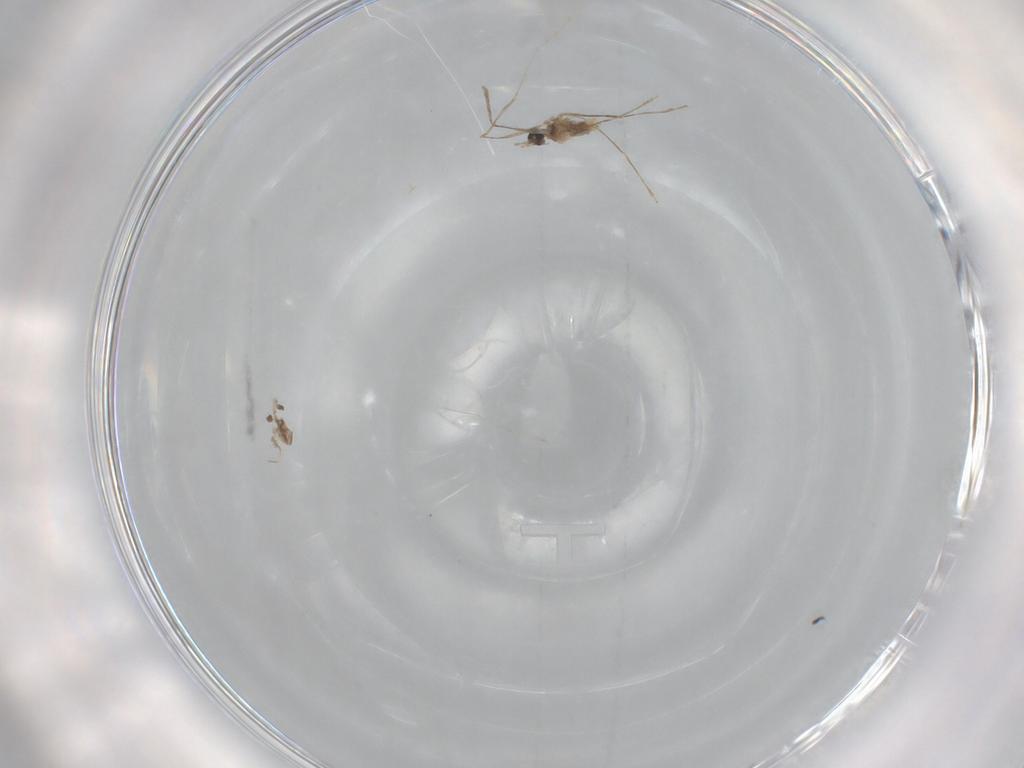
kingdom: Animalia
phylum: Arthropoda
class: Insecta
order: Diptera
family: Cecidomyiidae
